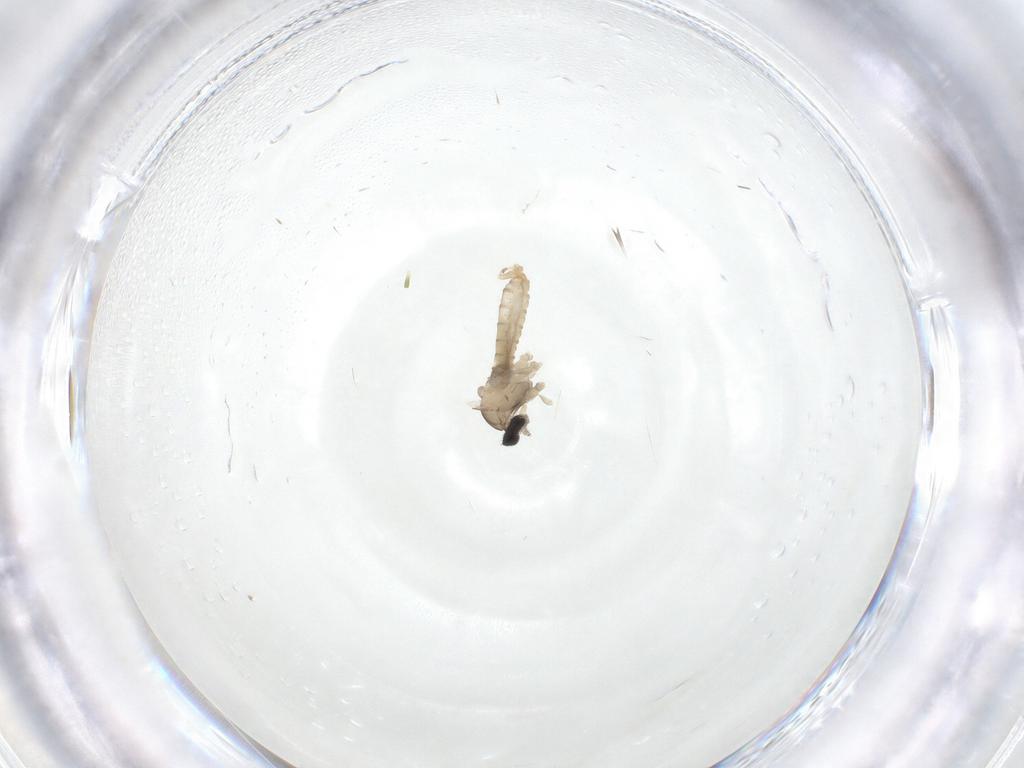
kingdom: Animalia
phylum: Arthropoda
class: Insecta
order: Diptera
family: Cecidomyiidae
